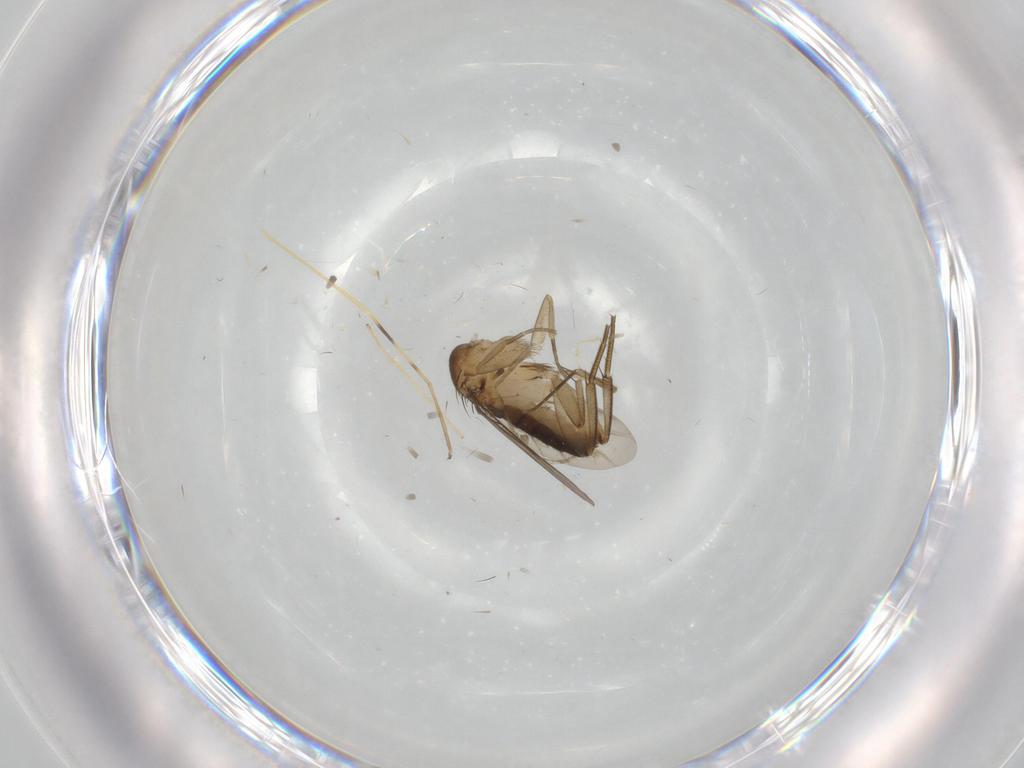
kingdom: Animalia
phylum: Arthropoda
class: Insecta
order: Diptera
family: Phoridae
